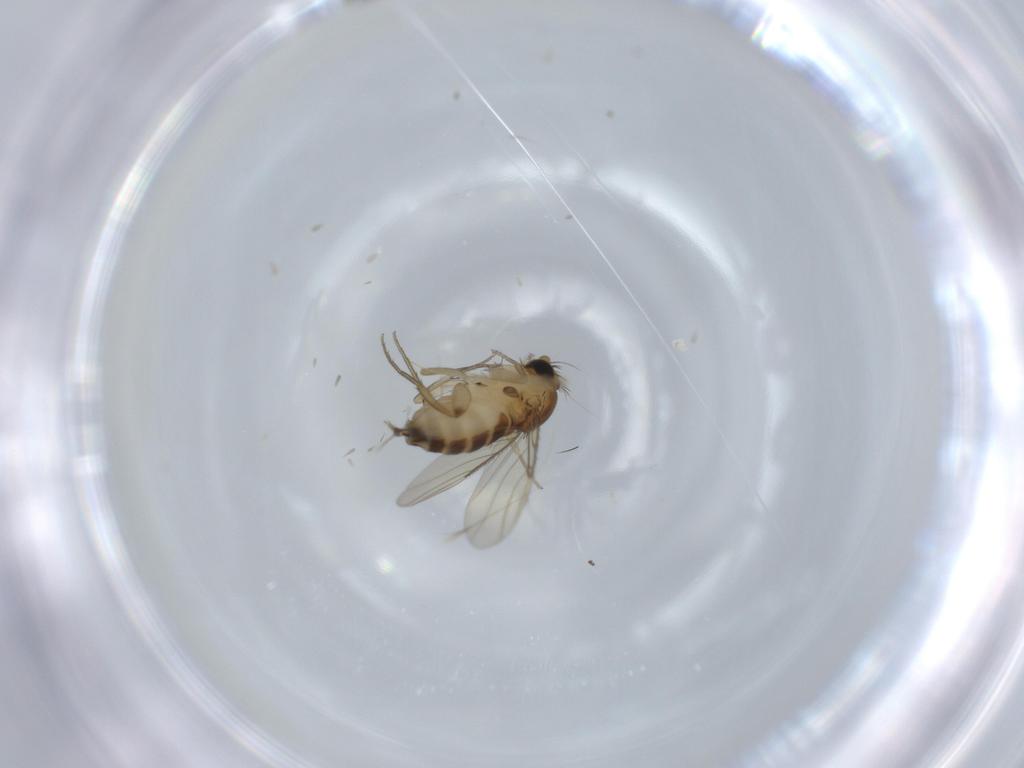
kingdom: Animalia
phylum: Arthropoda
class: Insecta
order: Diptera
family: Phoridae
